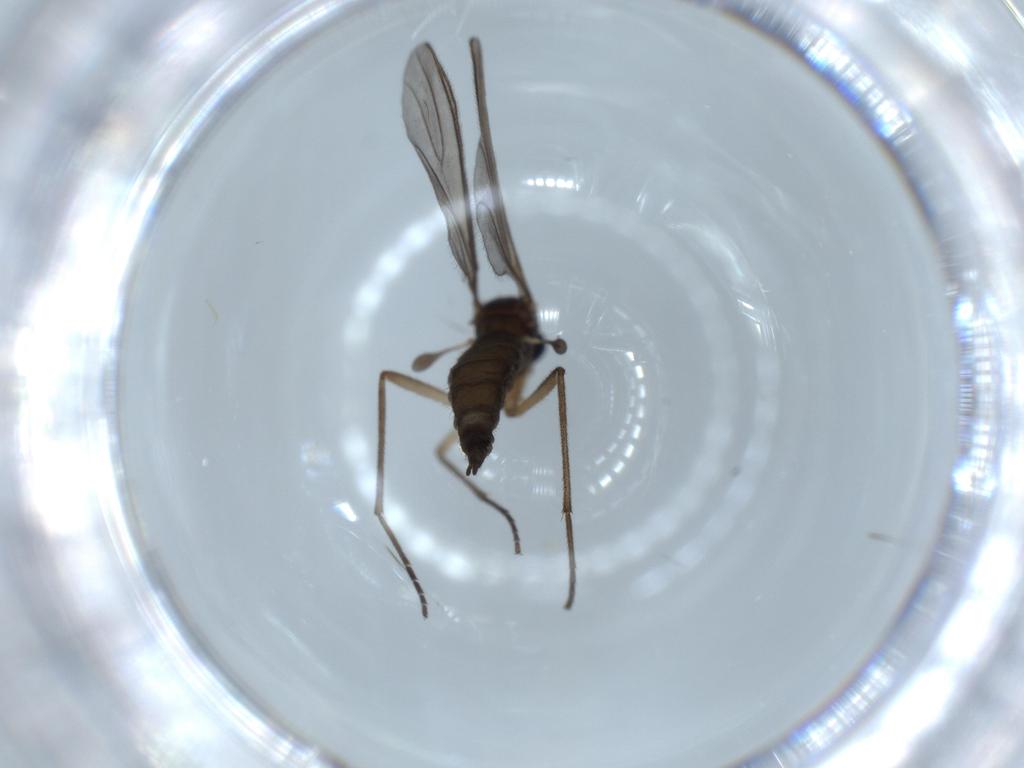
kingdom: Animalia
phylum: Arthropoda
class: Insecta
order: Diptera
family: Sciaridae
